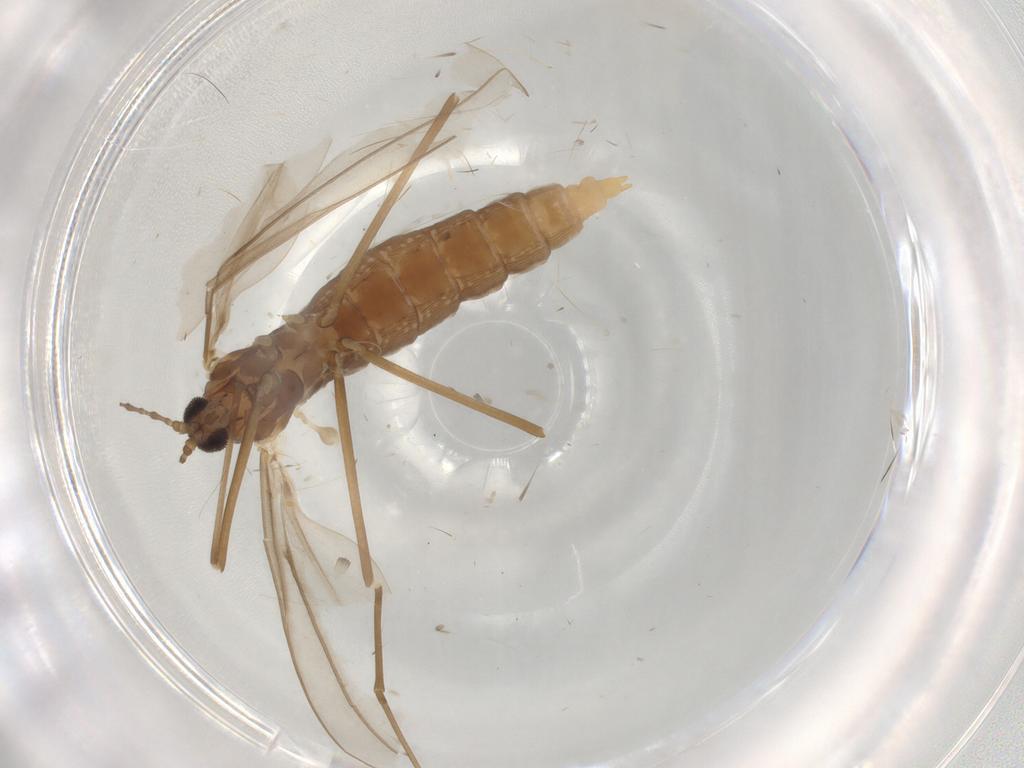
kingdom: Animalia
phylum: Arthropoda
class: Insecta
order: Diptera
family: Cecidomyiidae
